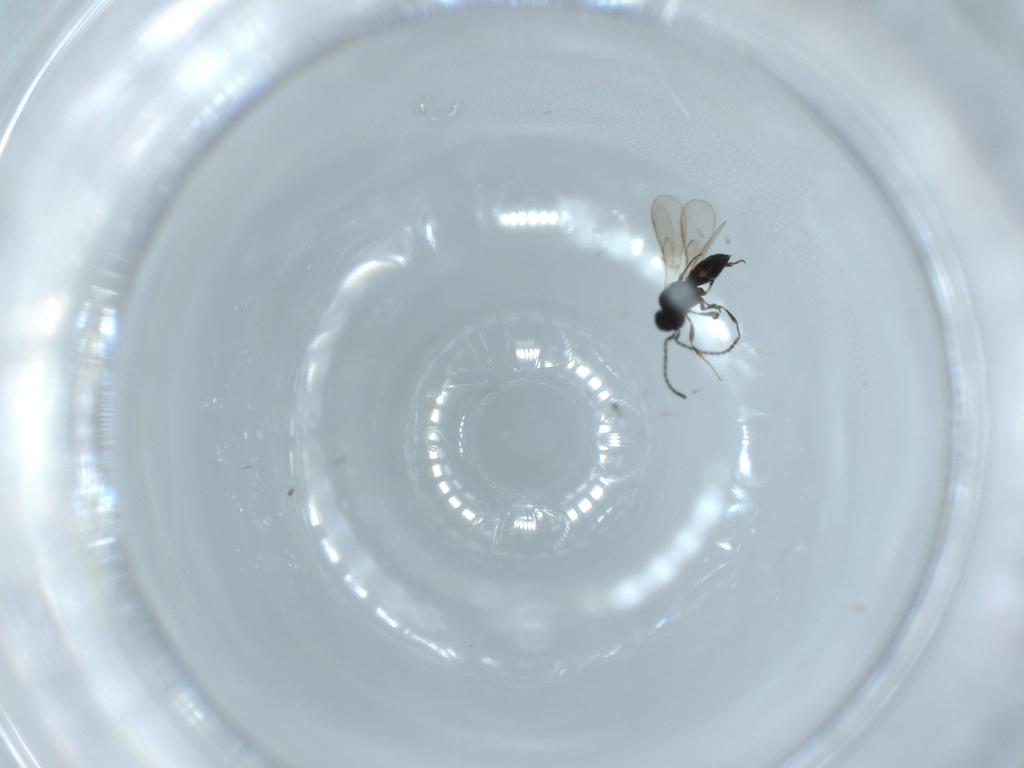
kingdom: Animalia
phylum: Arthropoda
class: Insecta
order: Hymenoptera
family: Scelionidae
